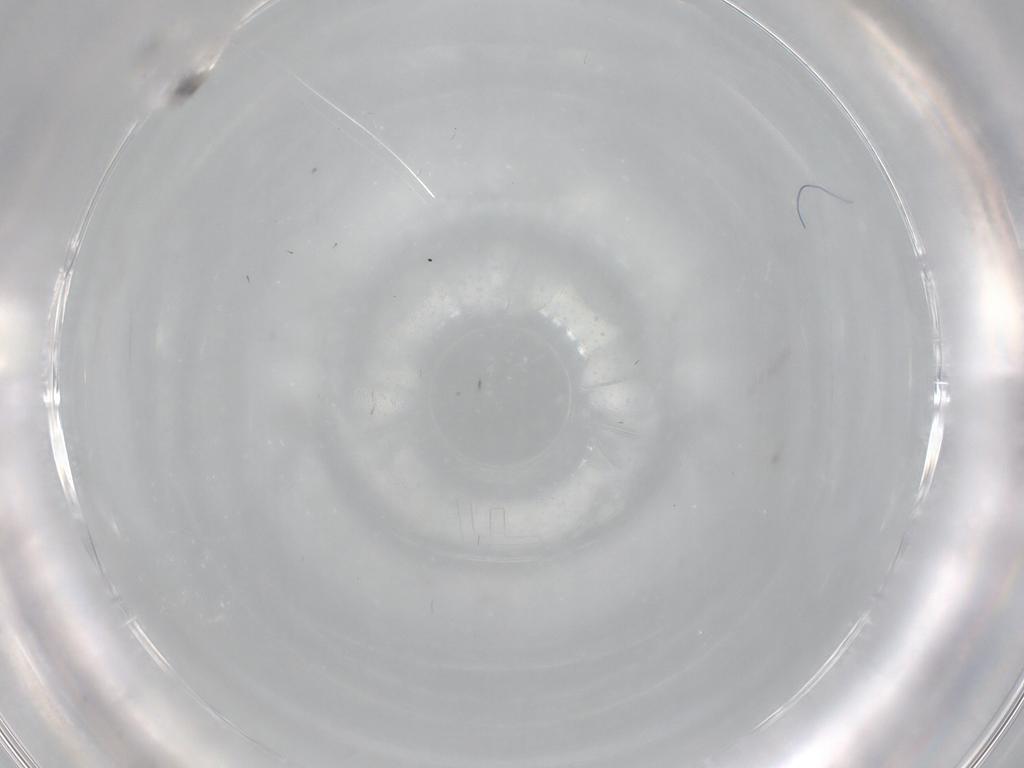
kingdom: Animalia
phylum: Arthropoda
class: Insecta
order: Diptera
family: Cecidomyiidae
